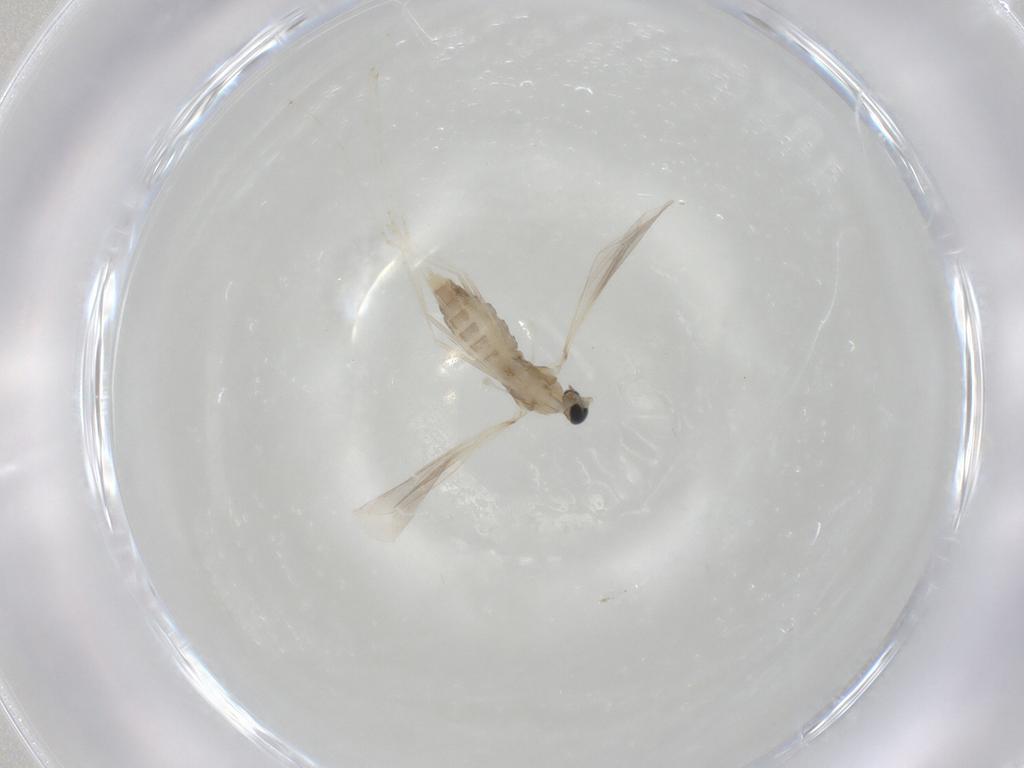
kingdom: Animalia
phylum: Arthropoda
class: Insecta
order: Diptera
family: Cecidomyiidae
